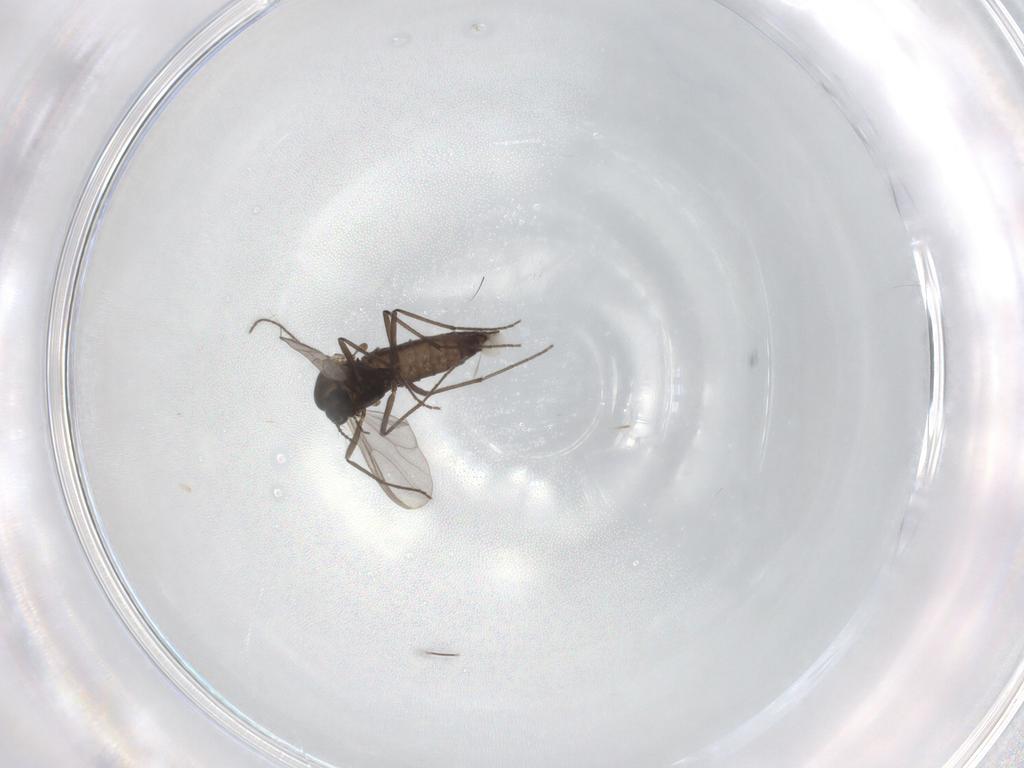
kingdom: Animalia
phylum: Arthropoda
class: Insecta
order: Diptera
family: Chironomidae
